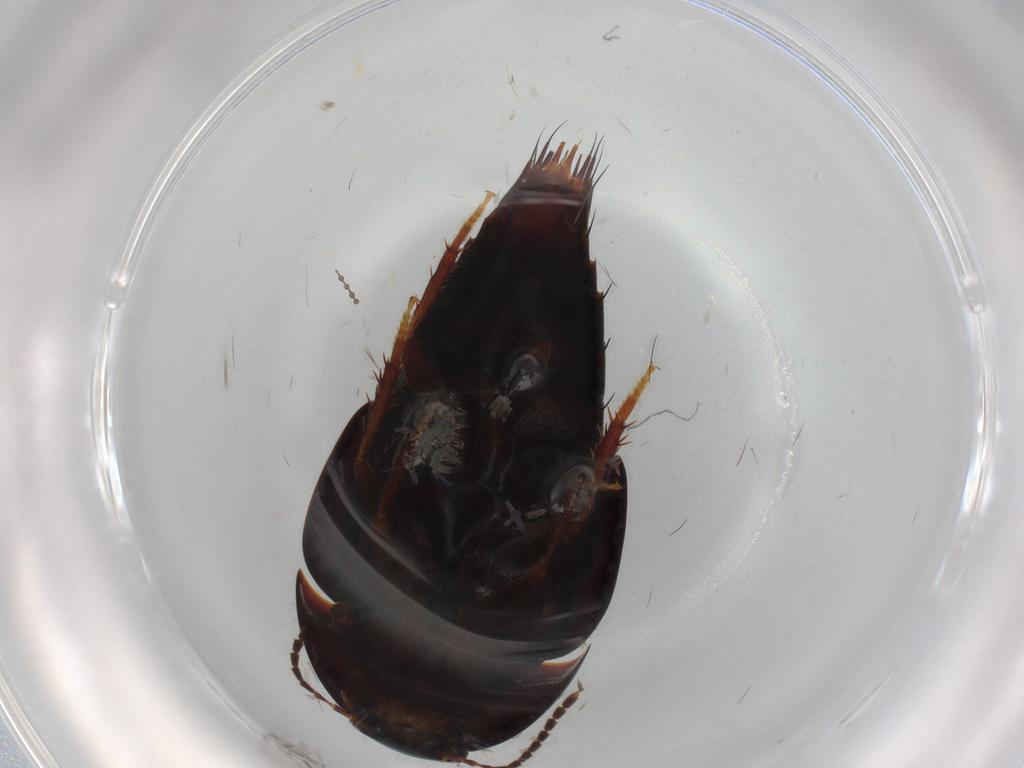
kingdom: Animalia
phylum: Arthropoda
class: Insecta
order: Coleoptera
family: Staphylinidae
